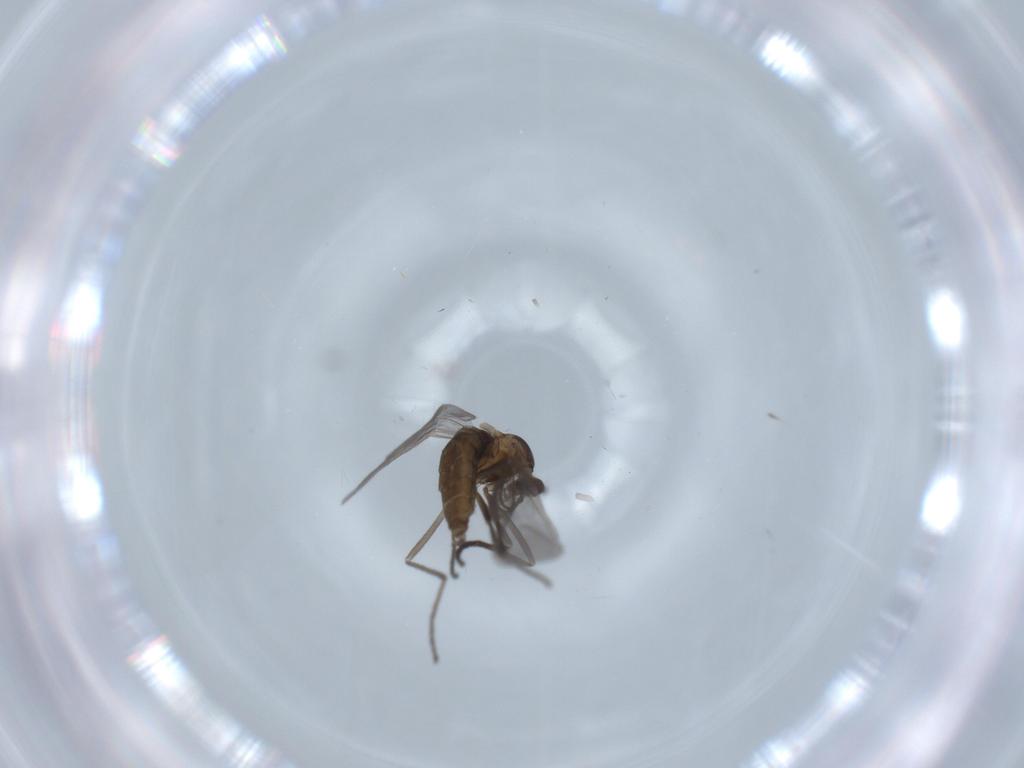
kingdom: Animalia
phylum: Arthropoda
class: Insecta
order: Diptera
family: Cecidomyiidae
